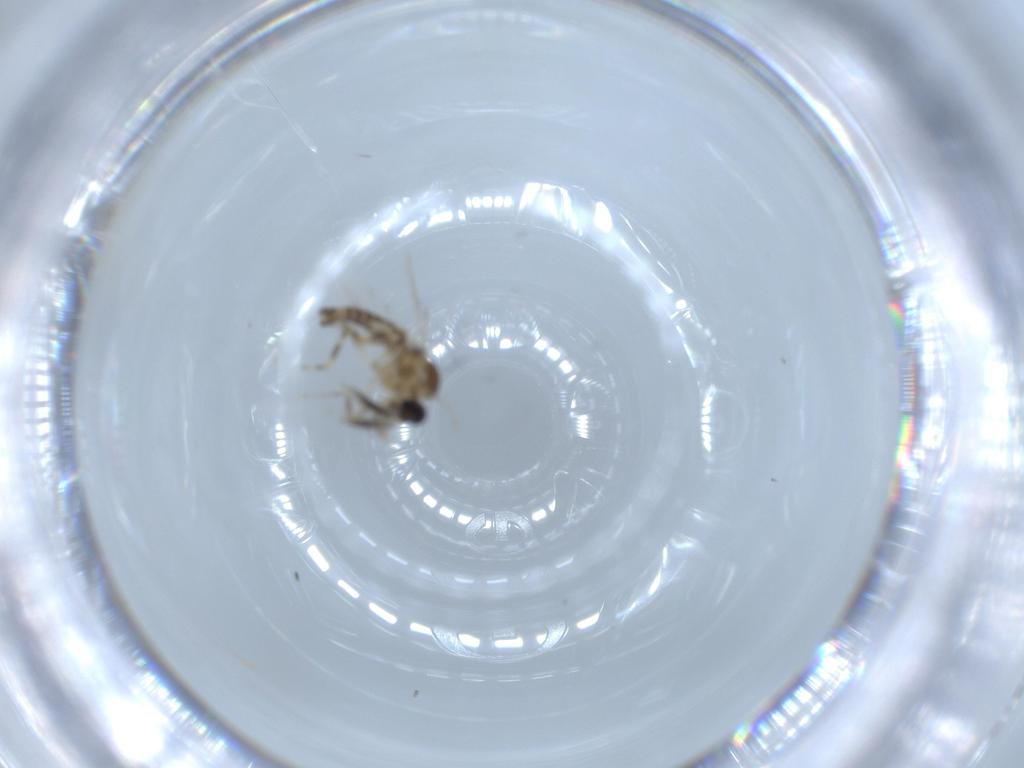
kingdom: Animalia
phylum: Arthropoda
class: Insecta
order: Diptera
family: Ceratopogonidae
